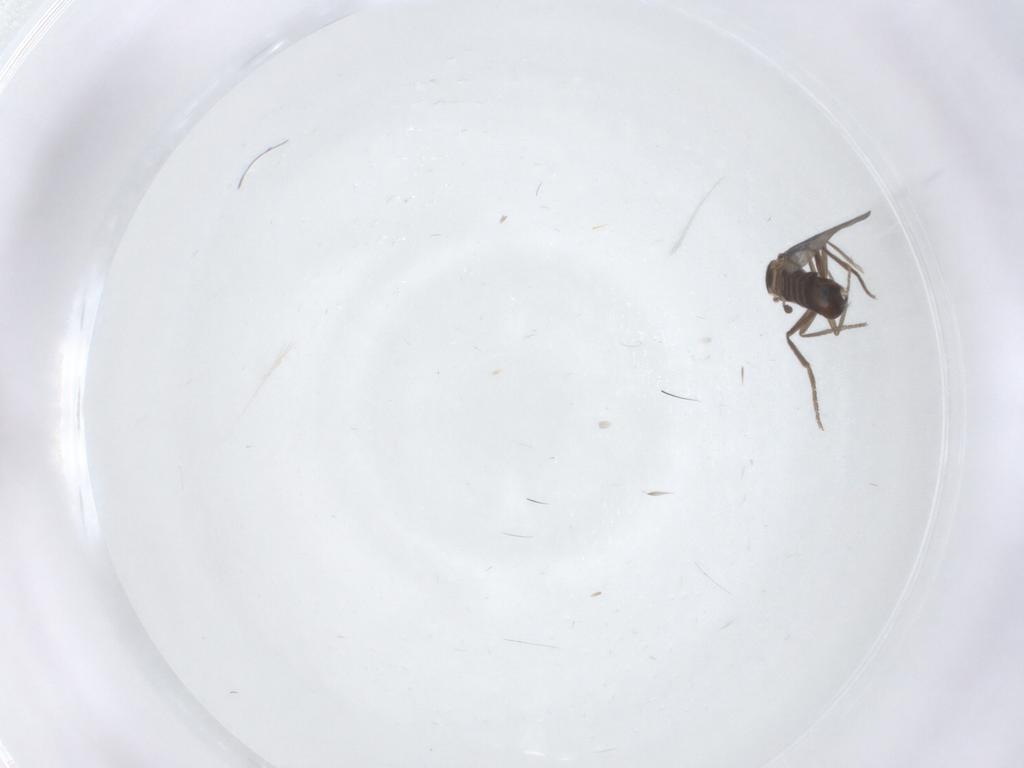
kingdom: Animalia
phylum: Arthropoda
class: Insecta
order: Diptera
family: Phoridae
